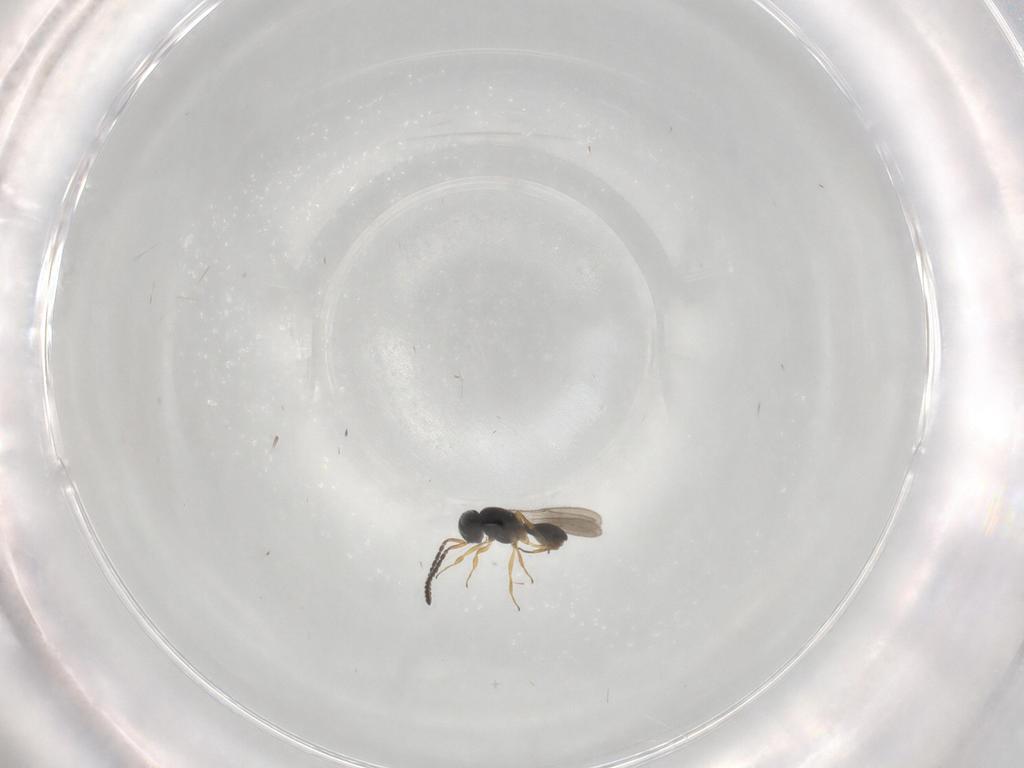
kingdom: Animalia
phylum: Arthropoda
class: Insecta
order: Hymenoptera
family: Scelionidae
